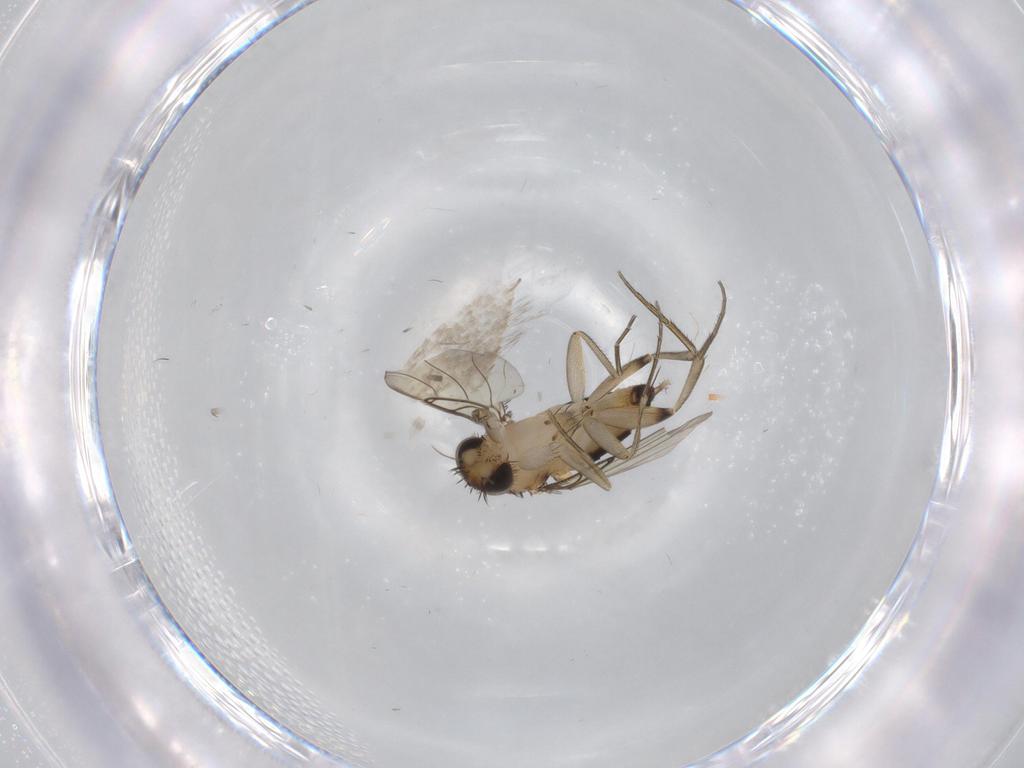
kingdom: Animalia
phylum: Arthropoda
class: Insecta
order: Diptera
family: Phoridae
